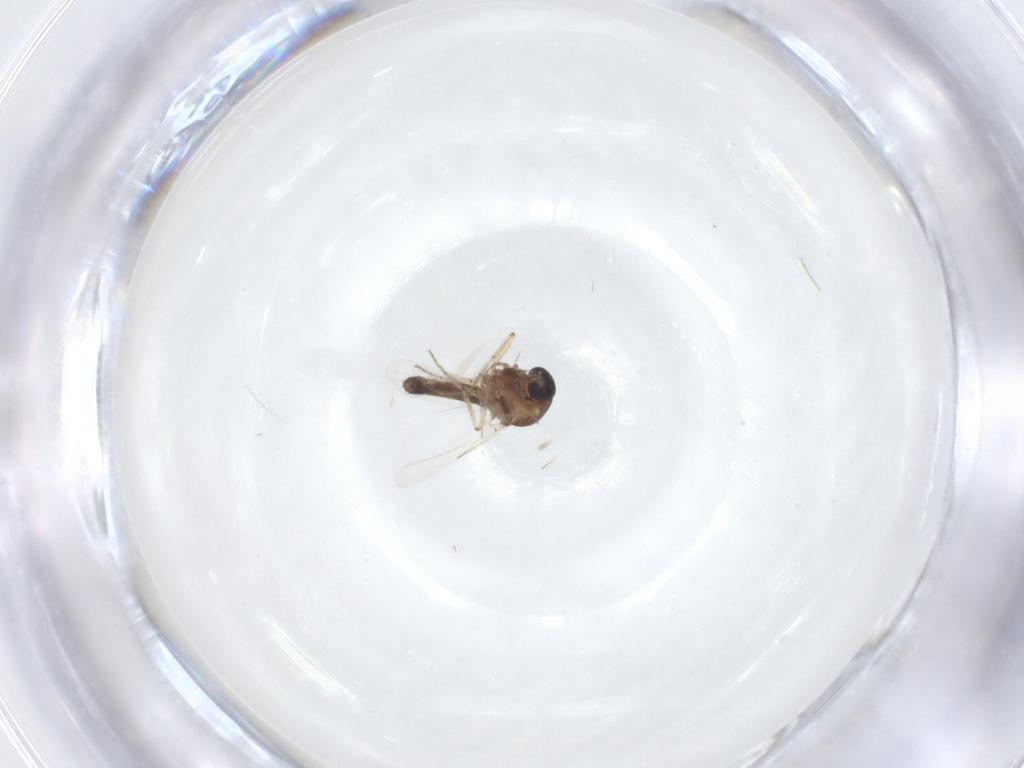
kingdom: Animalia
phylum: Arthropoda
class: Insecta
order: Diptera
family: Ceratopogonidae
